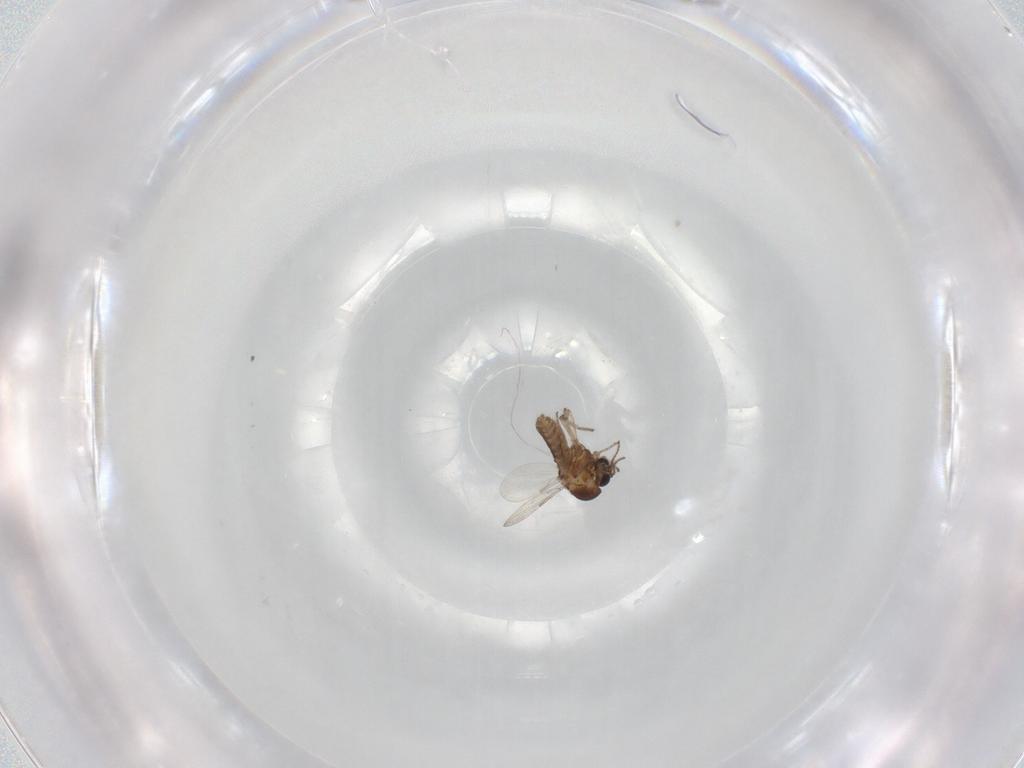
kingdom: Animalia
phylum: Arthropoda
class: Insecta
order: Diptera
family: Ceratopogonidae
